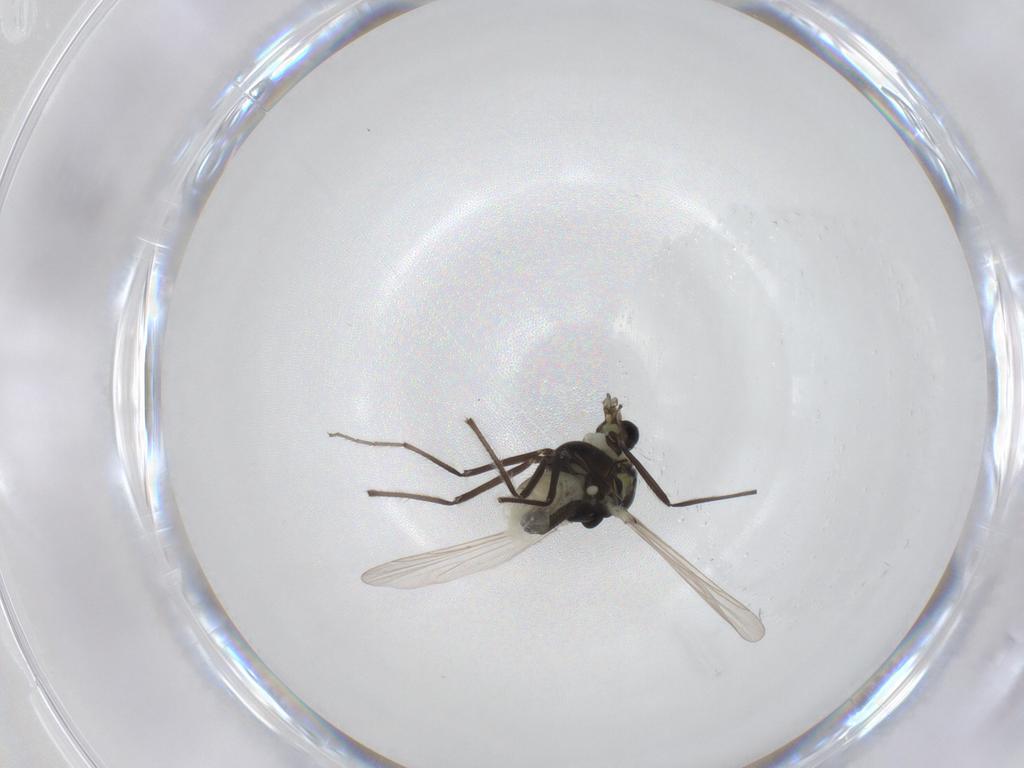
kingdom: Animalia
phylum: Arthropoda
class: Insecta
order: Diptera
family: Chironomidae
